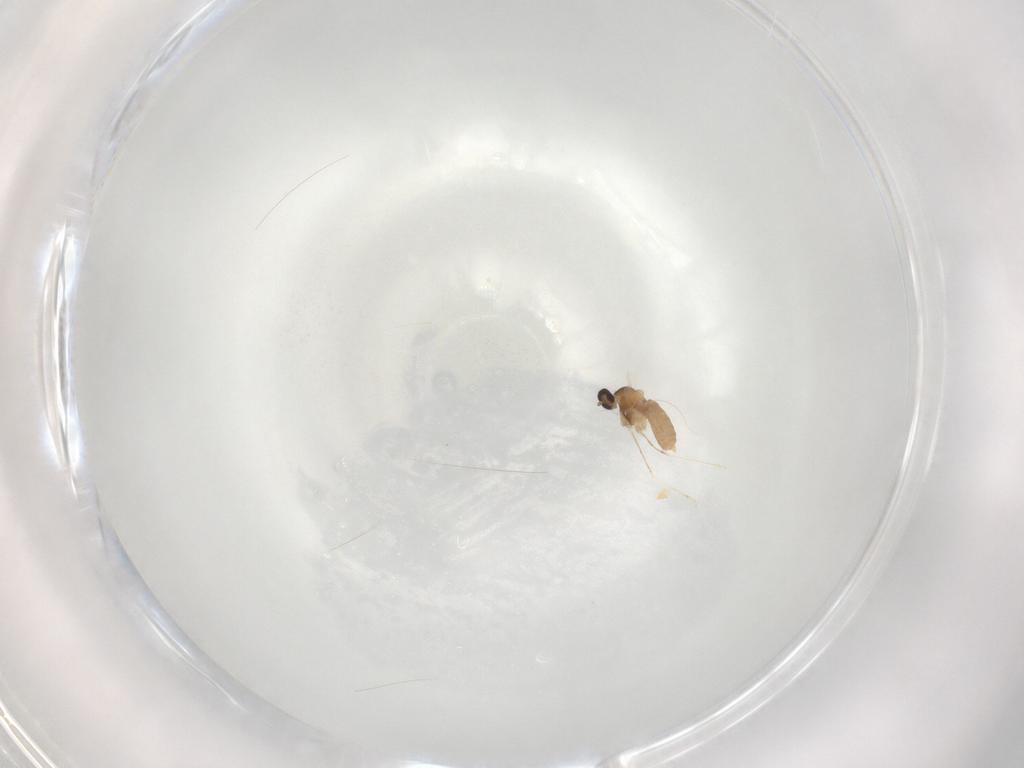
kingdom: Animalia
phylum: Arthropoda
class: Insecta
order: Diptera
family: Cecidomyiidae
